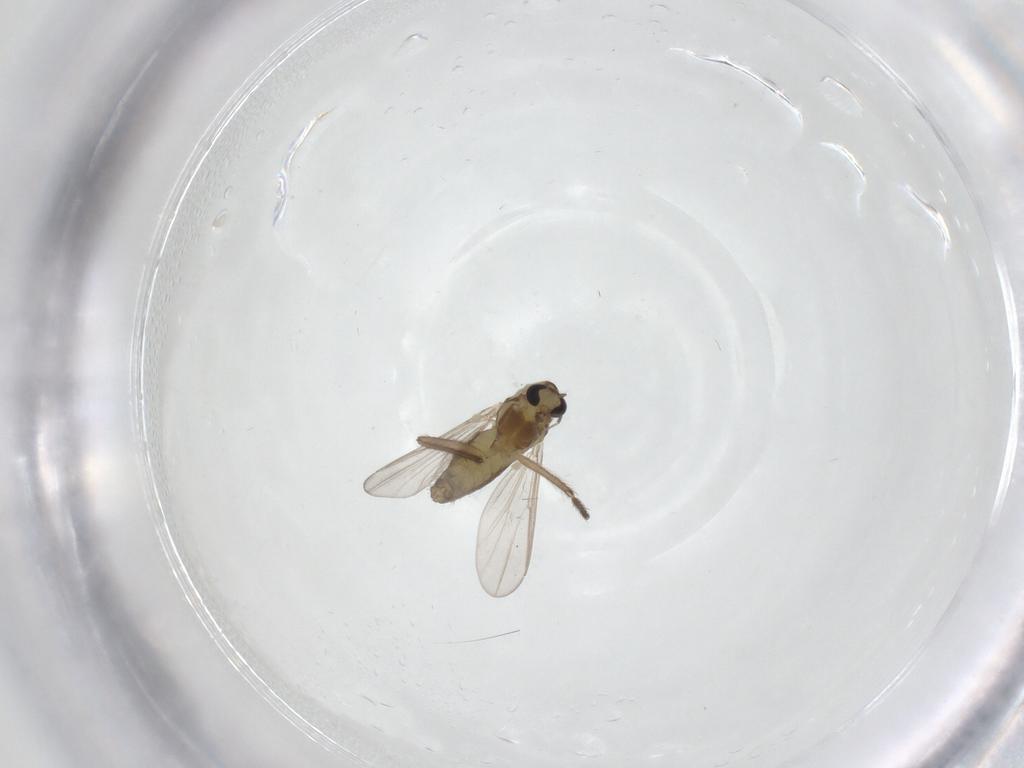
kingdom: Animalia
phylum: Arthropoda
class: Insecta
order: Diptera
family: Chironomidae
